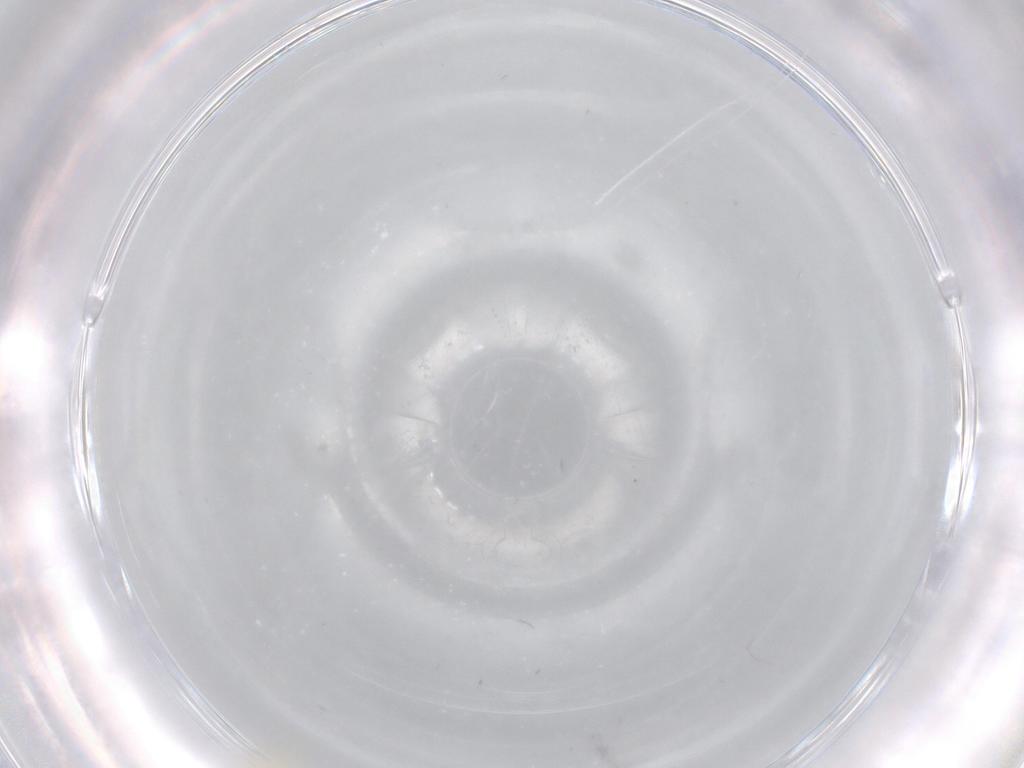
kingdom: Animalia
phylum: Arthropoda
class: Insecta
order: Hemiptera
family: Aleyrodidae
